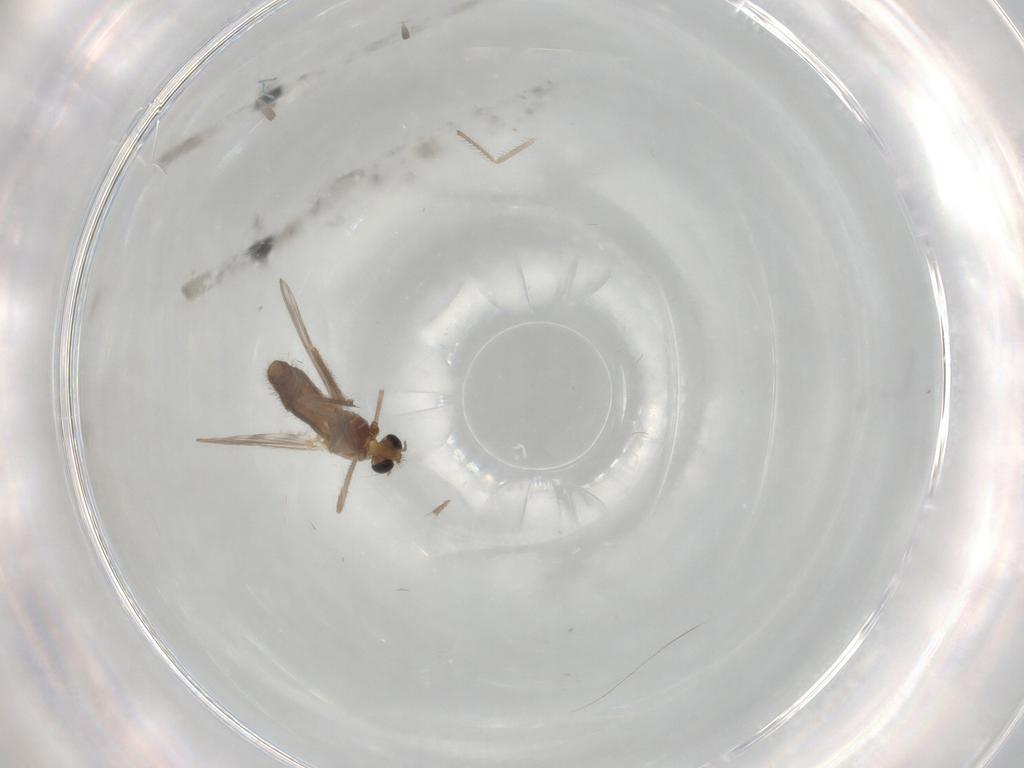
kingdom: Animalia
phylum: Arthropoda
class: Insecta
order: Diptera
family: Chironomidae
